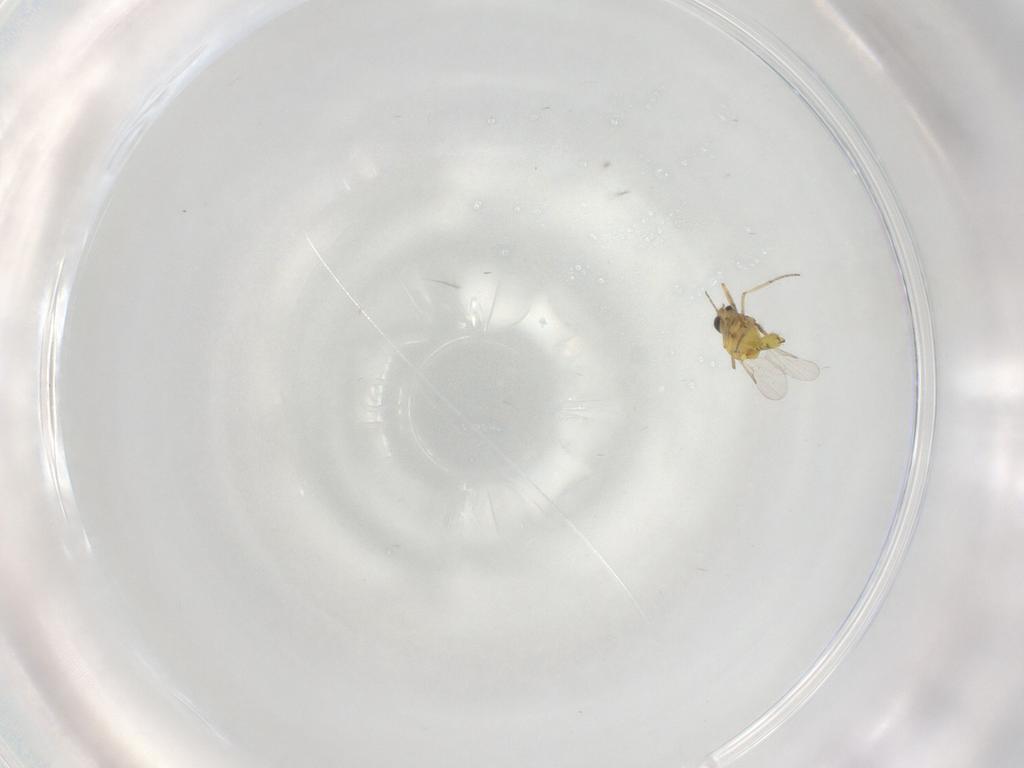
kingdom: Animalia
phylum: Arthropoda
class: Insecta
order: Diptera
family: Ceratopogonidae
